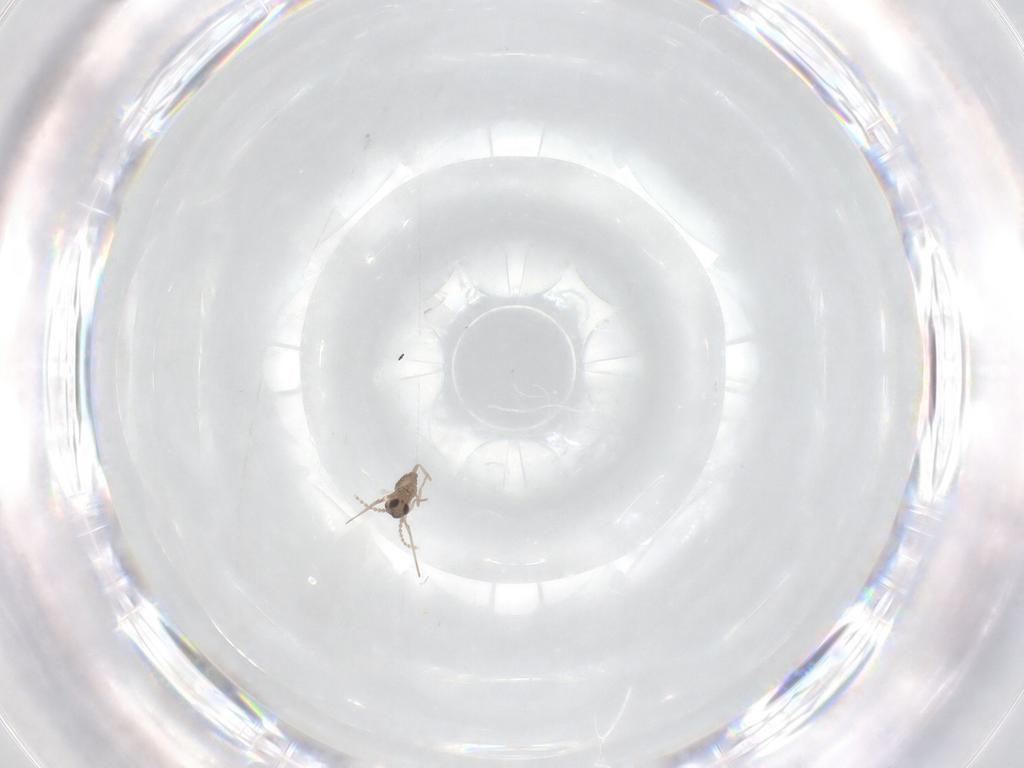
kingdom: Animalia
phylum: Arthropoda
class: Insecta
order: Diptera
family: Cecidomyiidae
